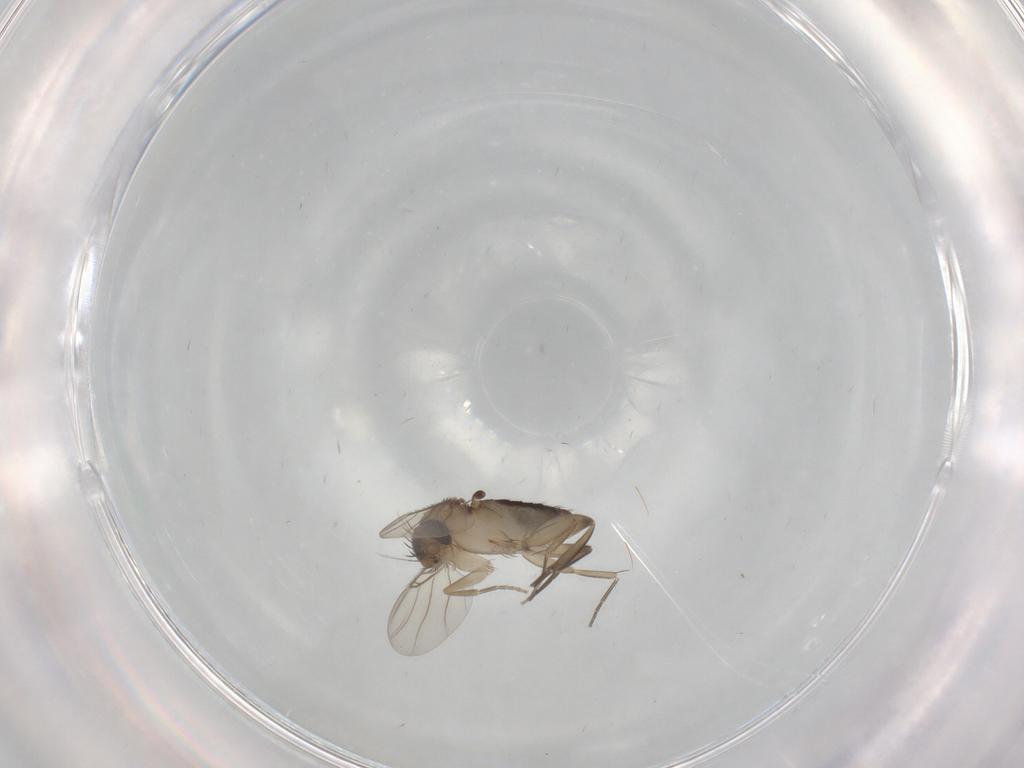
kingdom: Animalia
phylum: Arthropoda
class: Insecta
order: Diptera
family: Phoridae
